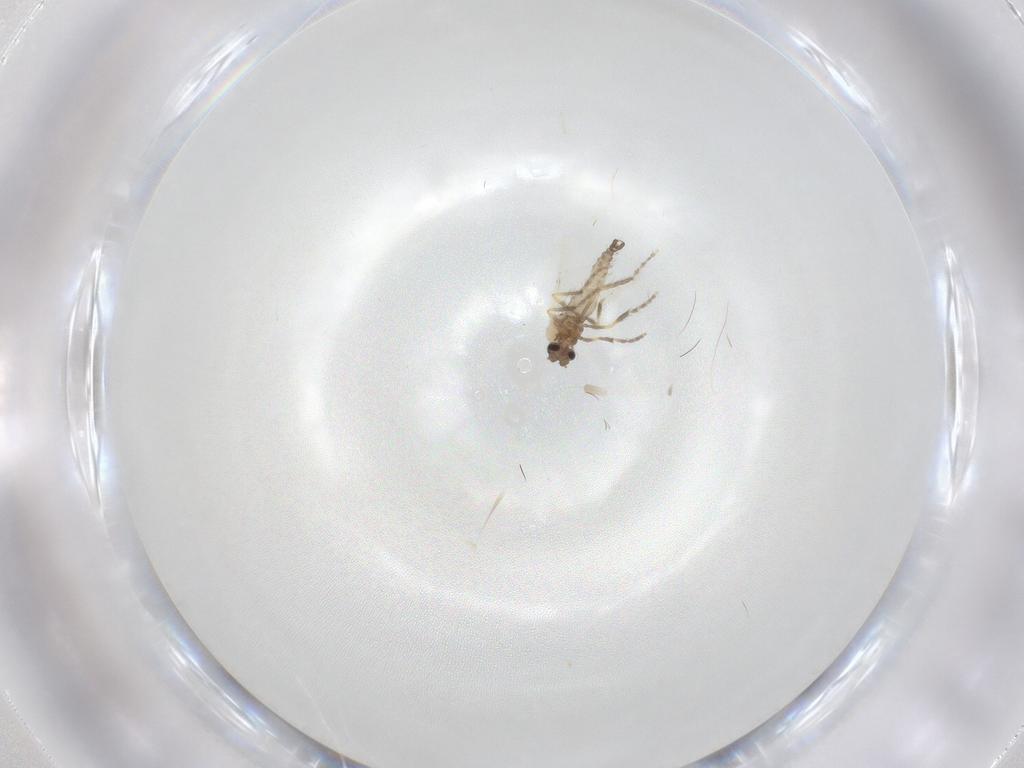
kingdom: Animalia
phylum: Arthropoda
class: Insecta
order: Diptera
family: Ceratopogonidae
